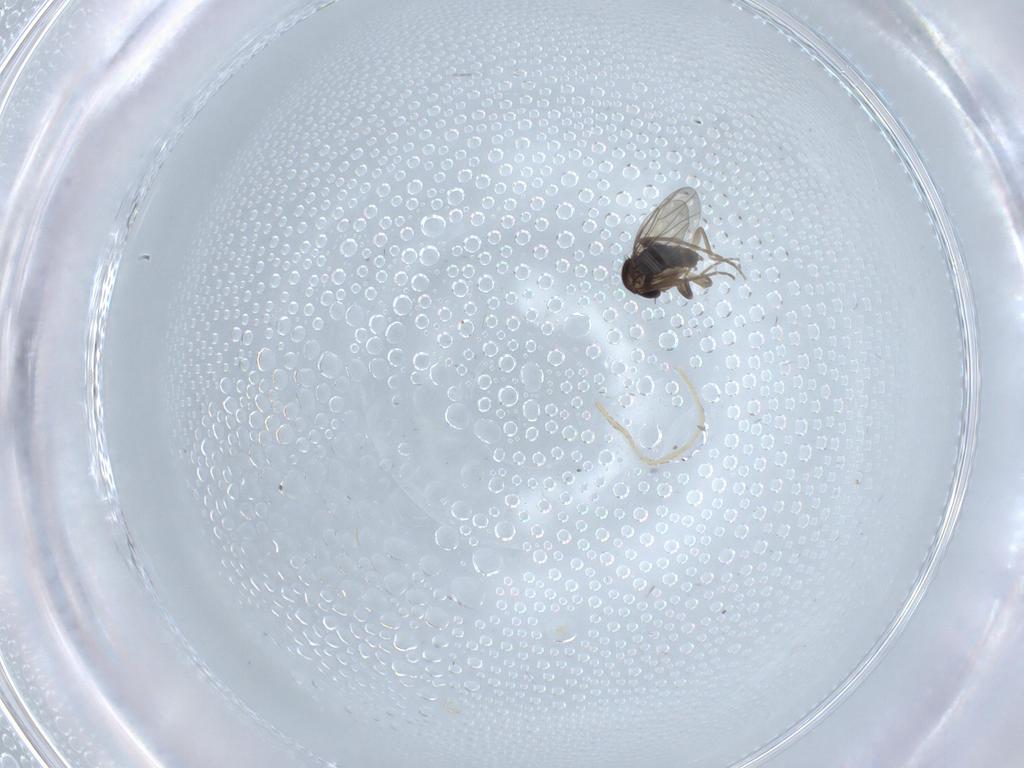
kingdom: Animalia
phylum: Arthropoda
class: Insecta
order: Diptera
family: Phoridae
